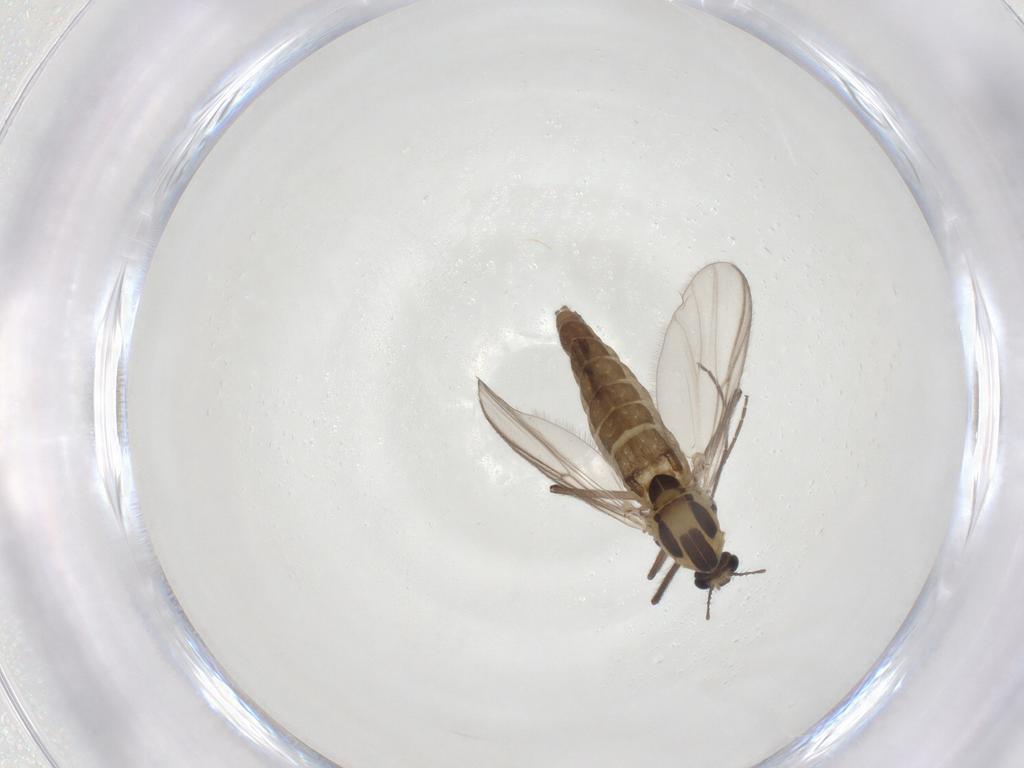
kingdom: Animalia
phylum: Arthropoda
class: Insecta
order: Diptera
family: Chironomidae
